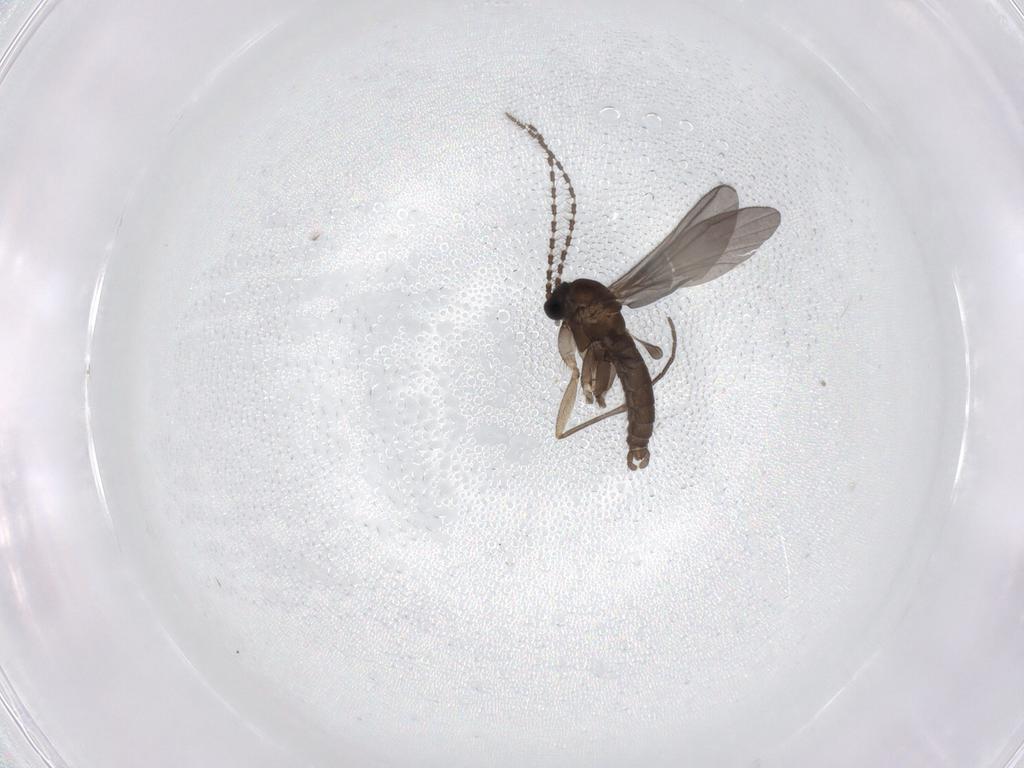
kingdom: Animalia
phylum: Arthropoda
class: Insecta
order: Diptera
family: Sciaridae
